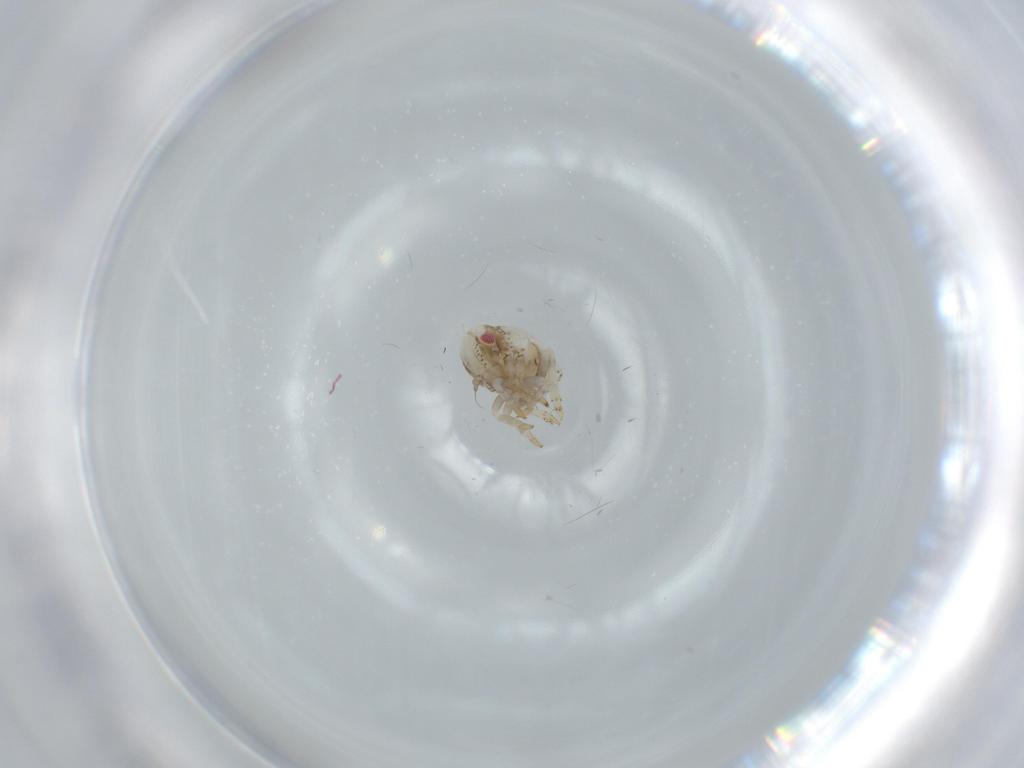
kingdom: Animalia
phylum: Arthropoda
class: Insecta
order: Hemiptera
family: Acanaloniidae
